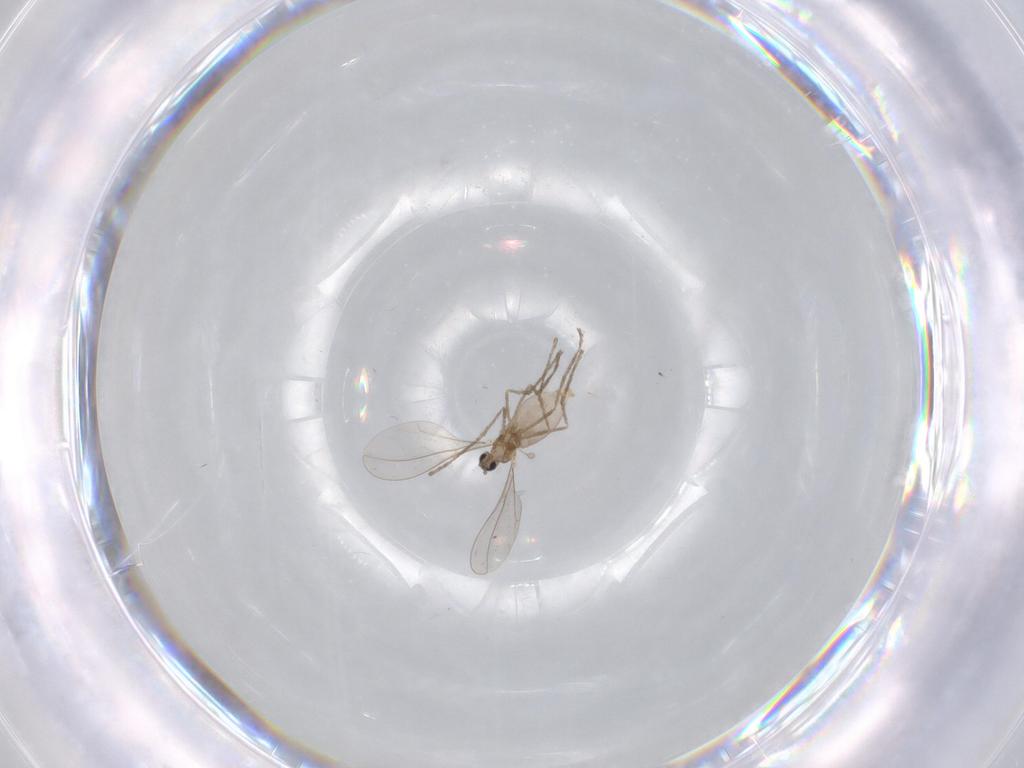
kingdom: Animalia
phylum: Arthropoda
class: Insecta
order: Diptera
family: Cecidomyiidae
